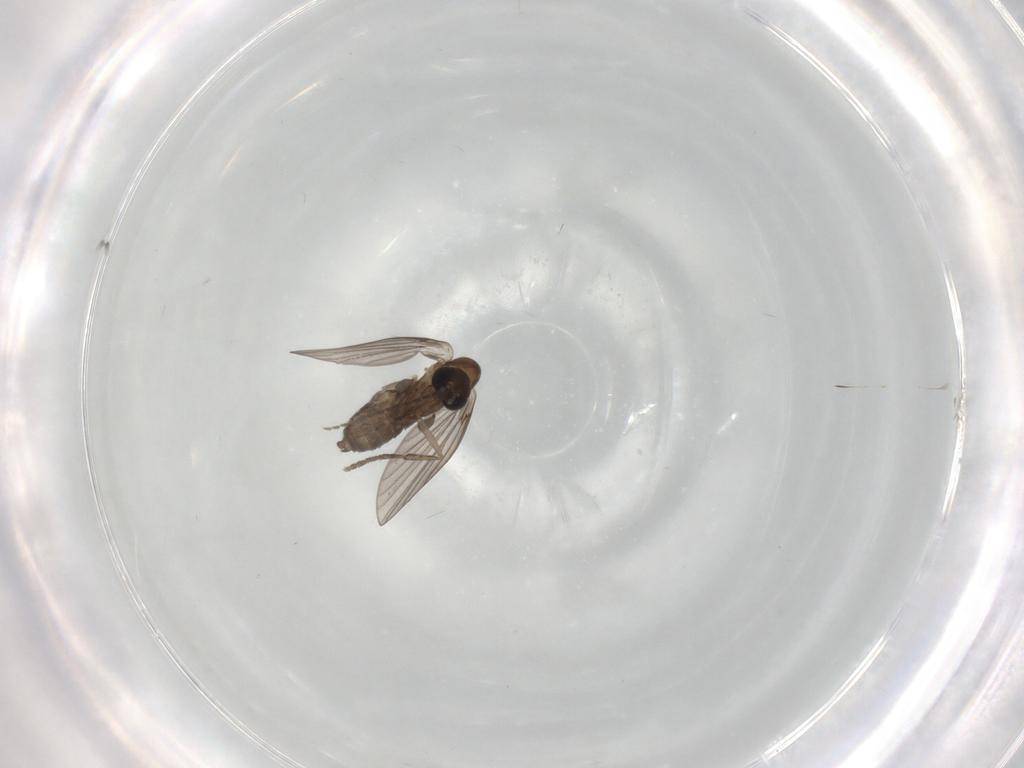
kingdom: Animalia
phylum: Arthropoda
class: Insecta
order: Diptera
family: Psychodidae
